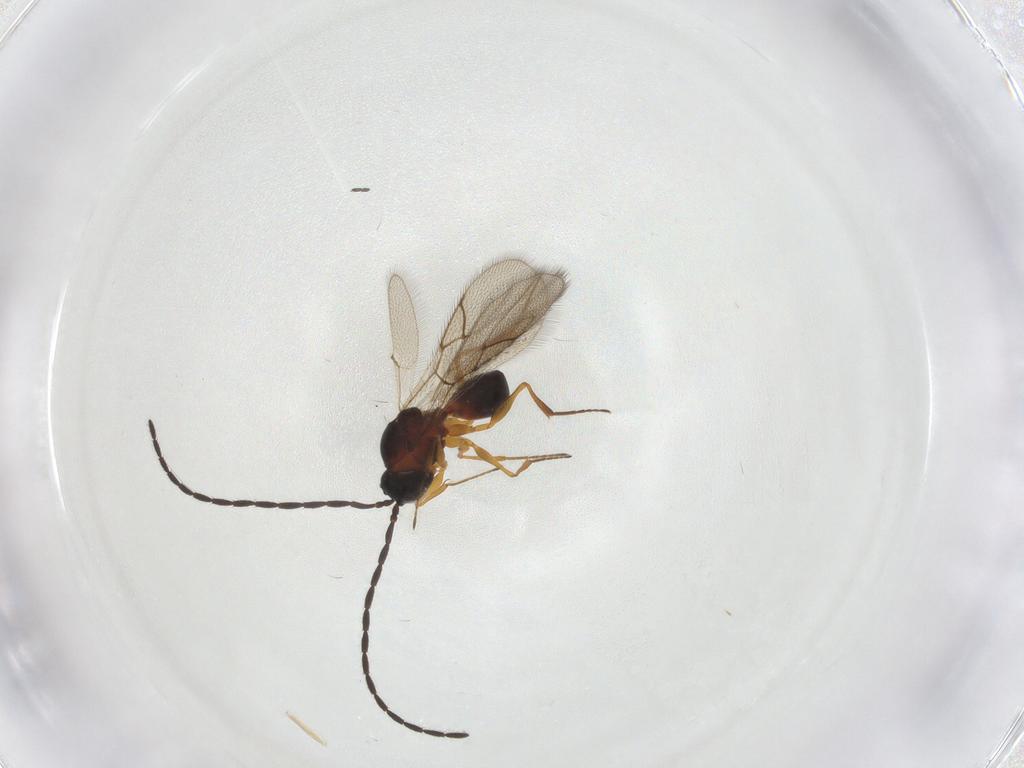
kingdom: Animalia
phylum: Arthropoda
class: Insecta
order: Hymenoptera
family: Figitidae
